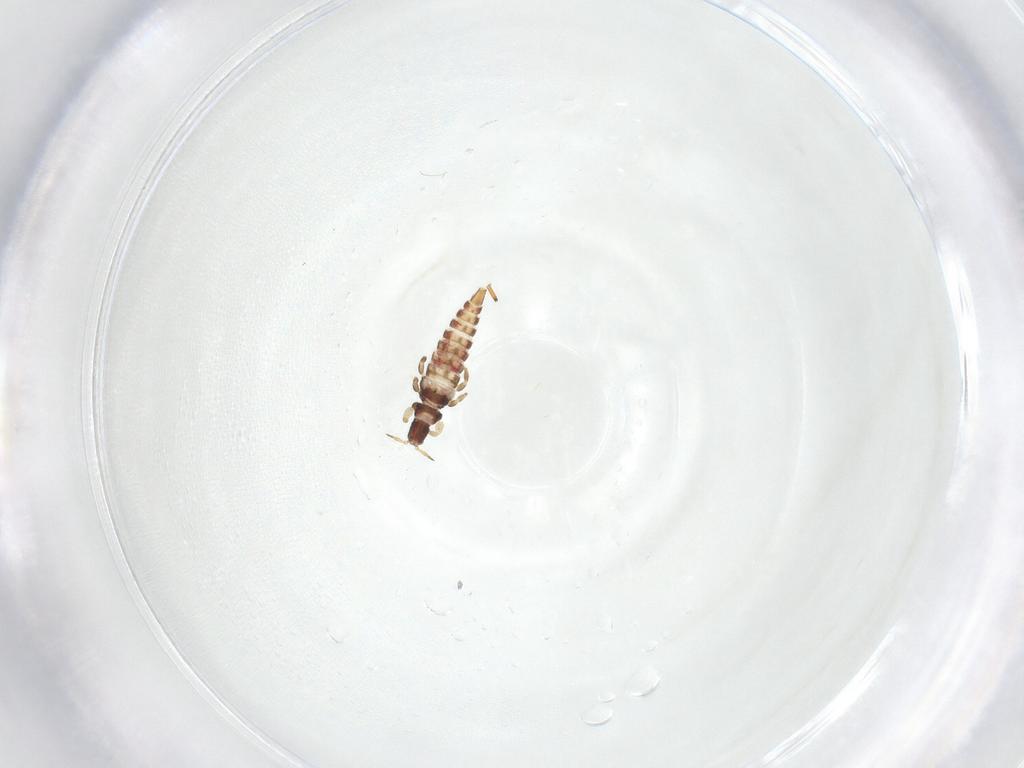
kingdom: Animalia
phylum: Arthropoda
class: Insecta
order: Thysanoptera
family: Phlaeothripidae
